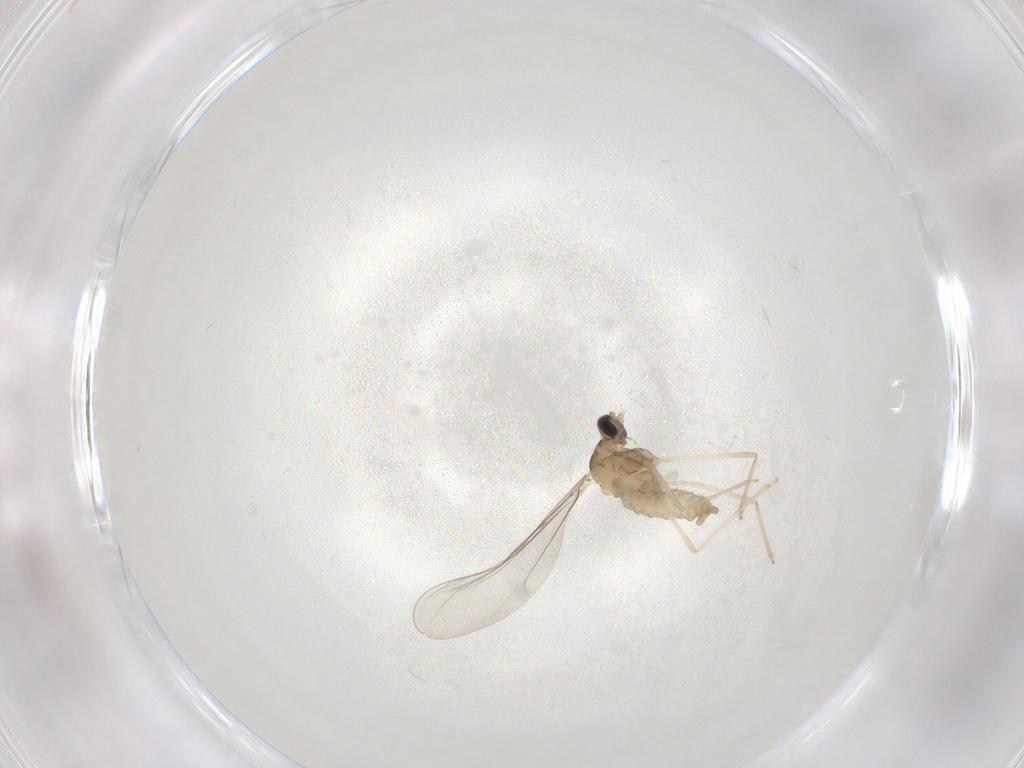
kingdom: Animalia
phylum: Arthropoda
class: Insecta
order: Diptera
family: Cecidomyiidae
